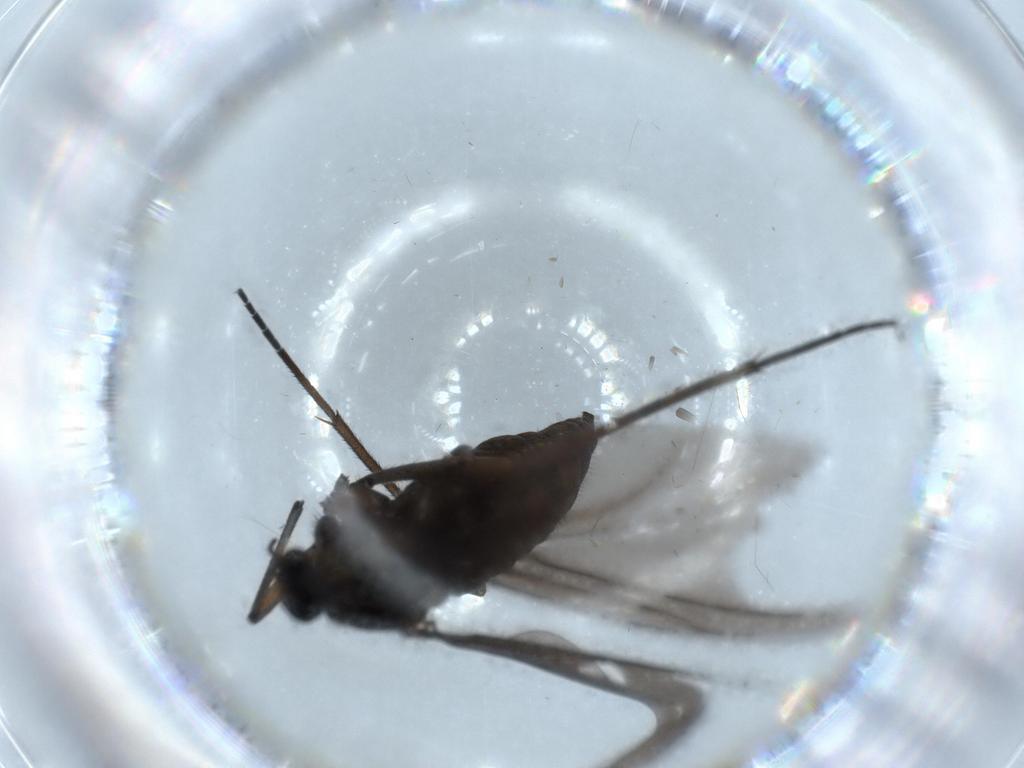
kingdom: Animalia
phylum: Arthropoda
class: Insecta
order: Diptera
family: Sciaridae
